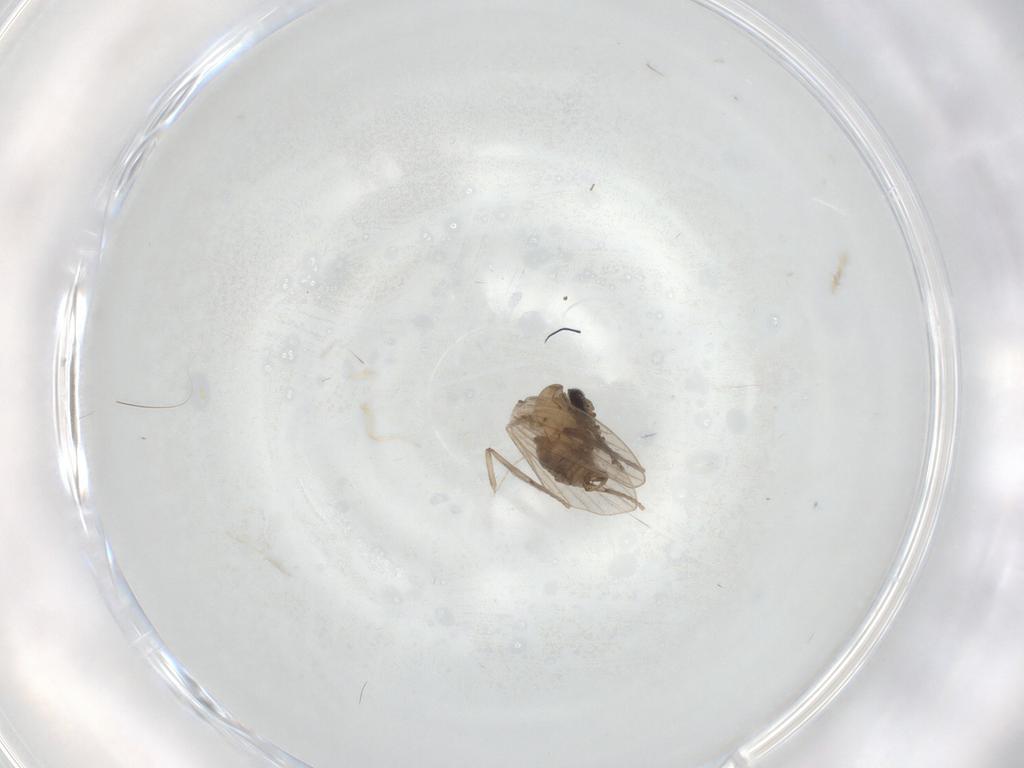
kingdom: Animalia
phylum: Arthropoda
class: Insecta
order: Diptera
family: Psychodidae
